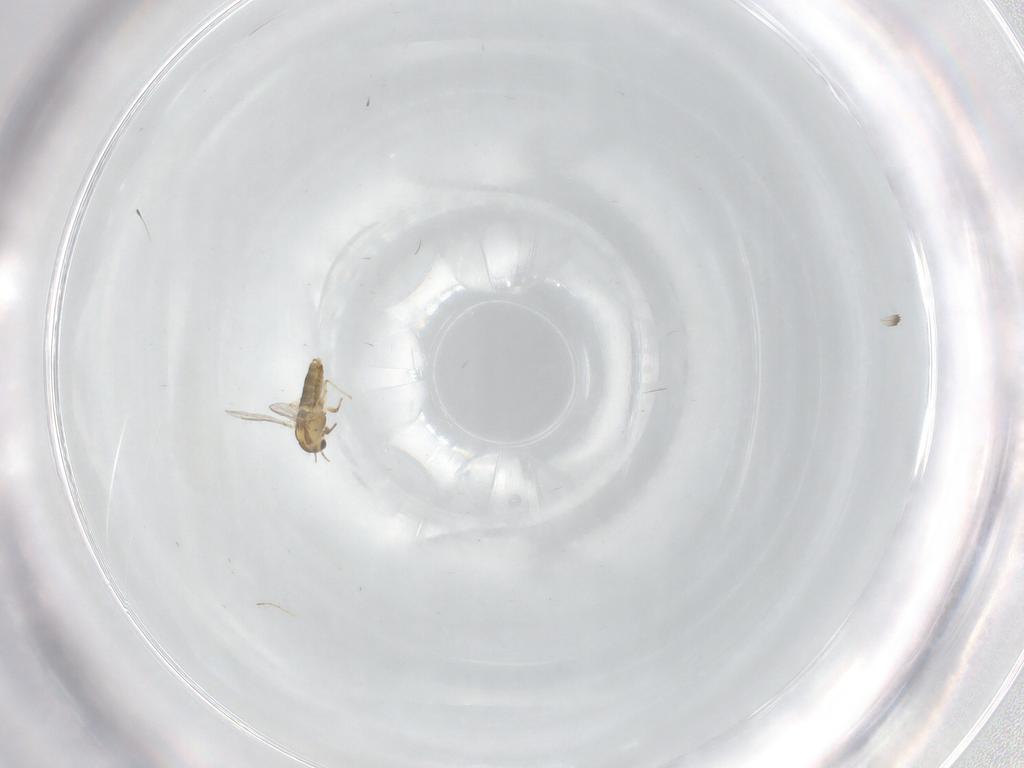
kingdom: Animalia
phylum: Arthropoda
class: Insecta
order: Diptera
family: Chironomidae
